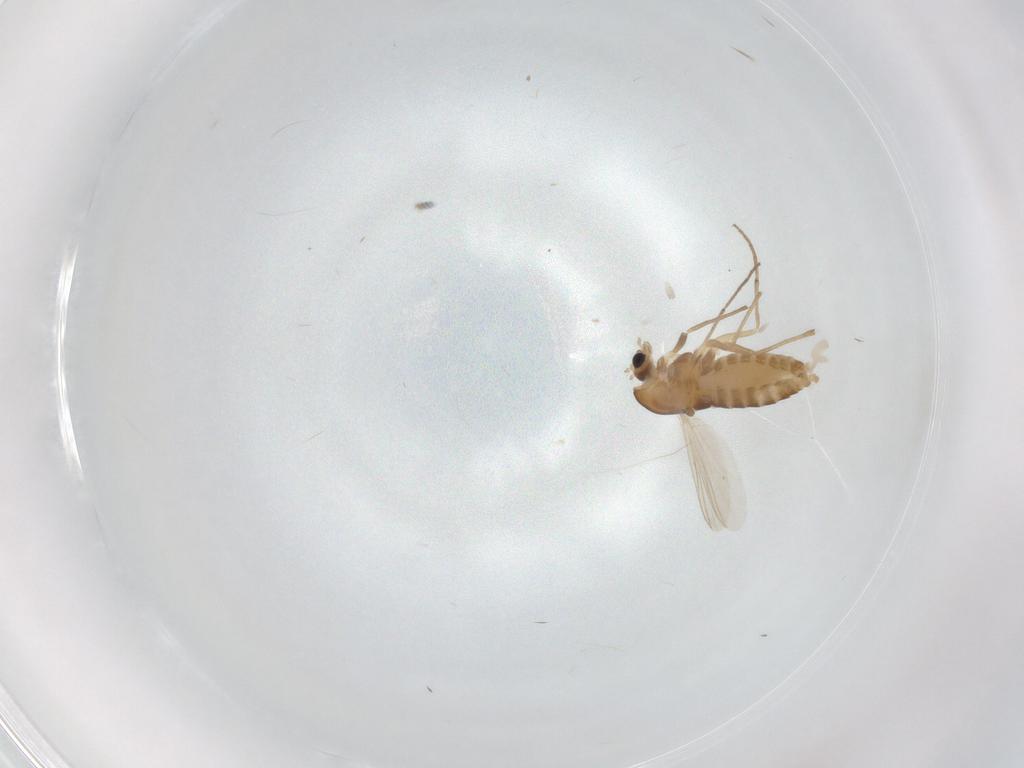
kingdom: Animalia
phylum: Arthropoda
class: Insecta
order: Diptera
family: Chironomidae
